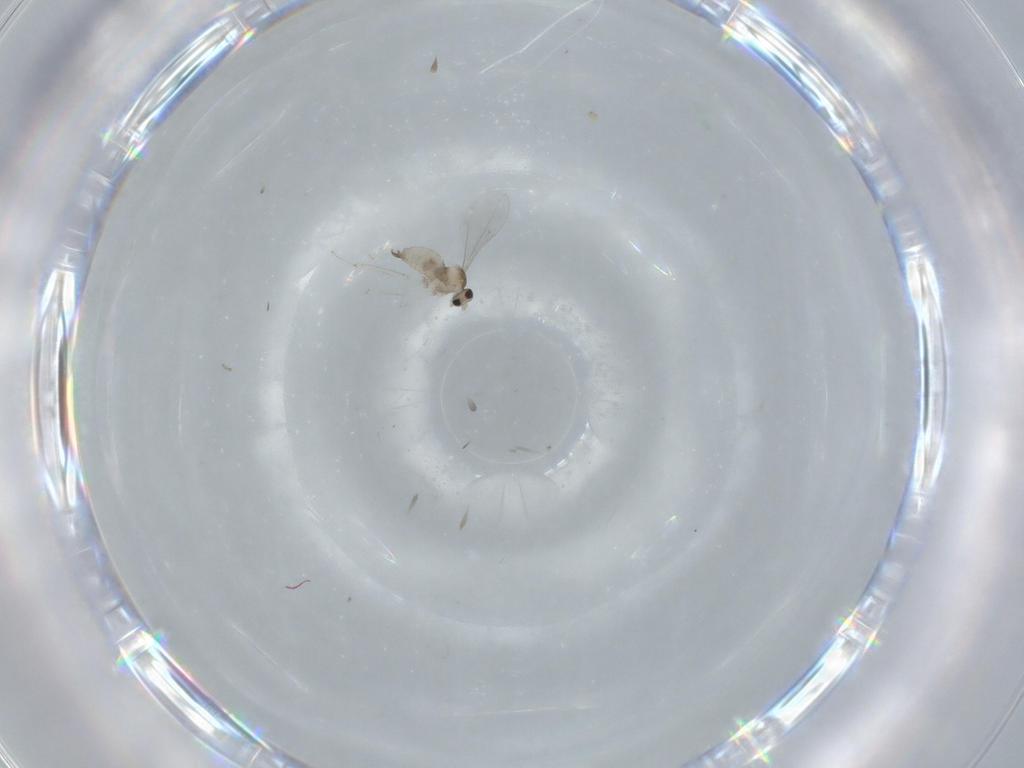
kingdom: Animalia
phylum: Arthropoda
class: Insecta
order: Diptera
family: Cecidomyiidae
